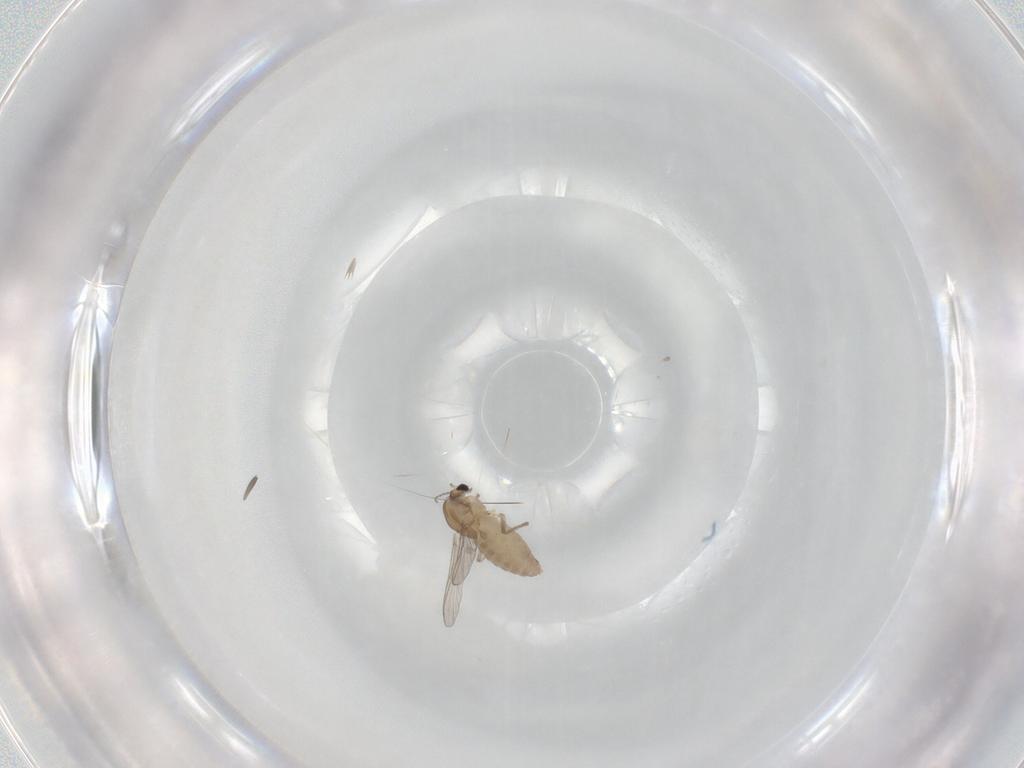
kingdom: Animalia
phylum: Arthropoda
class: Insecta
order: Diptera
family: Chironomidae
